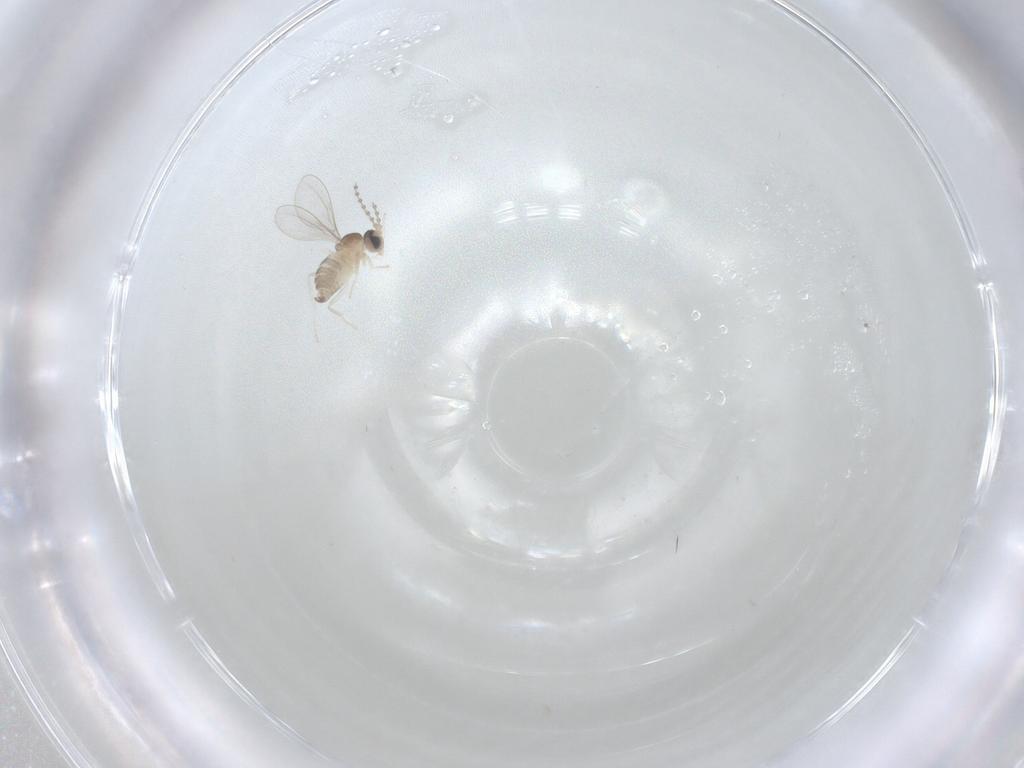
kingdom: Animalia
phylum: Arthropoda
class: Insecta
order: Diptera
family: Cecidomyiidae
